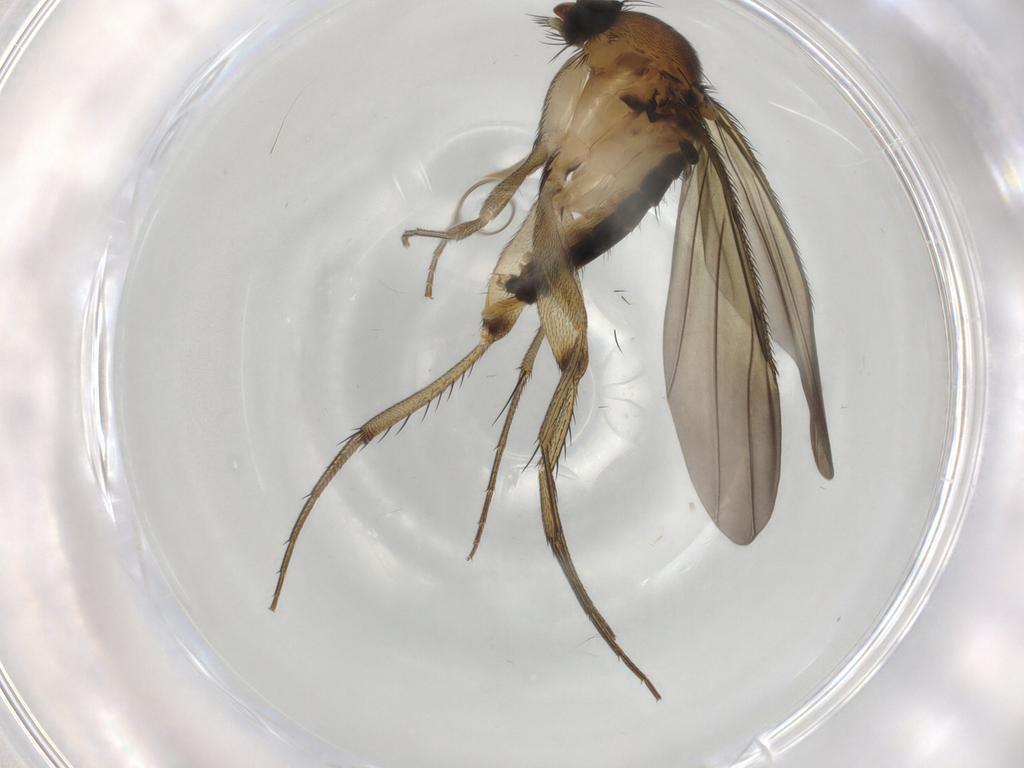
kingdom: Animalia
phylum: Arthropoda
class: Insecta
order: Diptera
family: Phoridae
